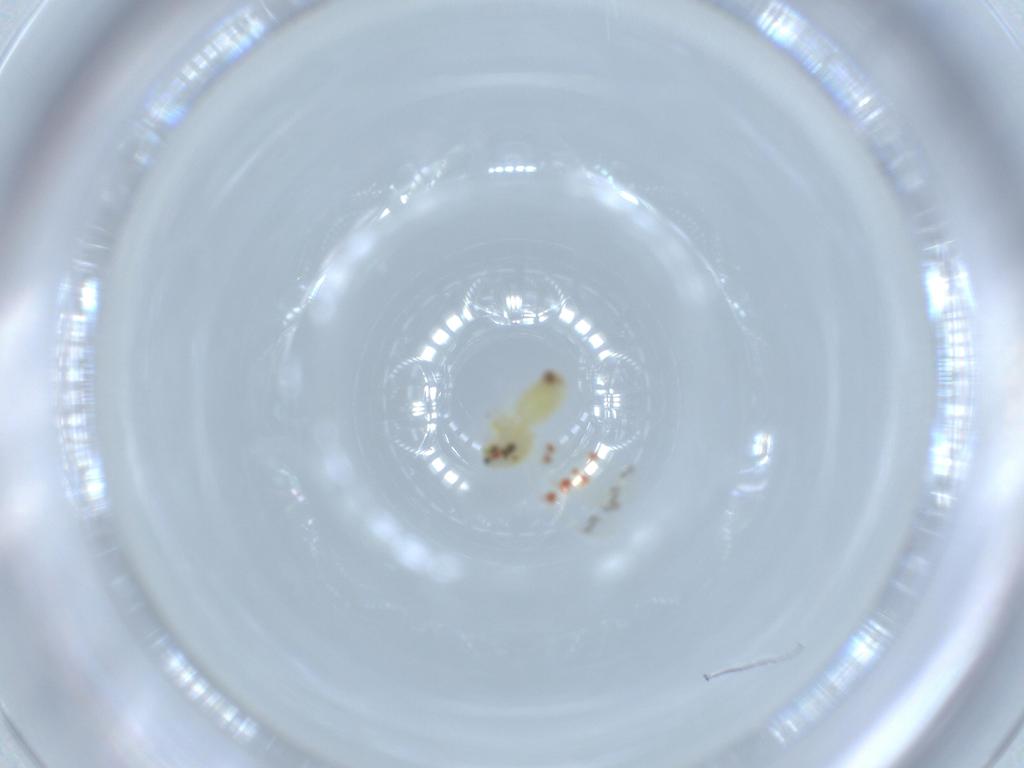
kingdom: Animalia
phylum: Arthropoda
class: Insecta
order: Hemiptera
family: Aleyrodidae
